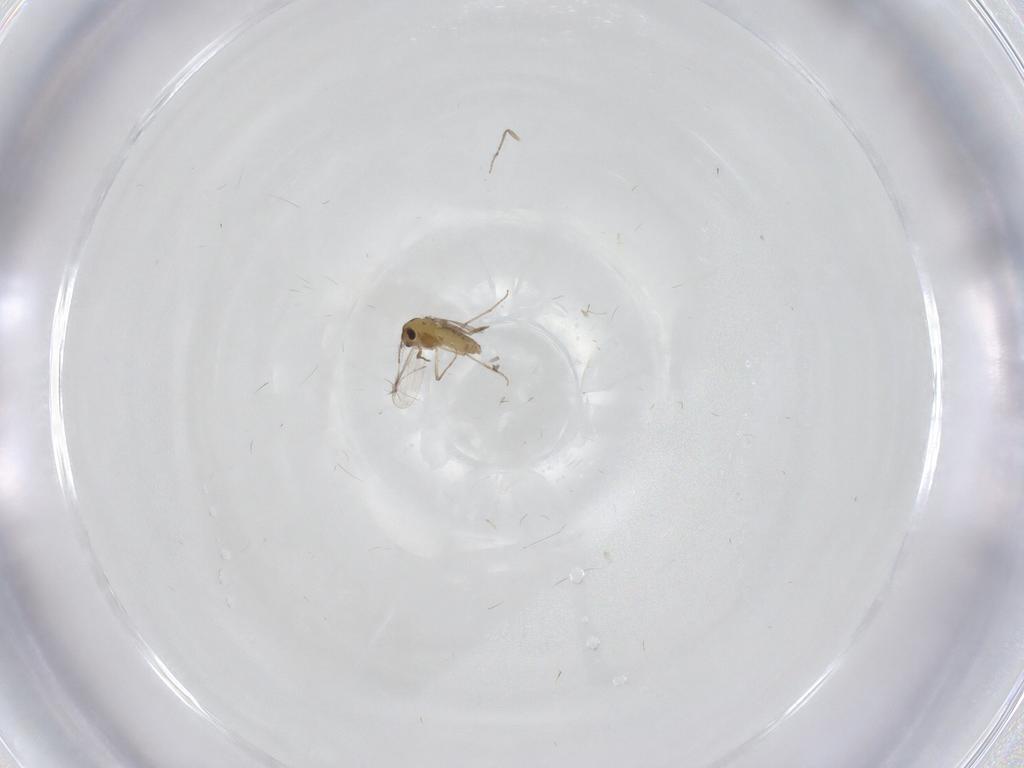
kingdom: Animalia
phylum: Arthropoda
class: Insecta
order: Diptera
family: Cecidomyiidae
